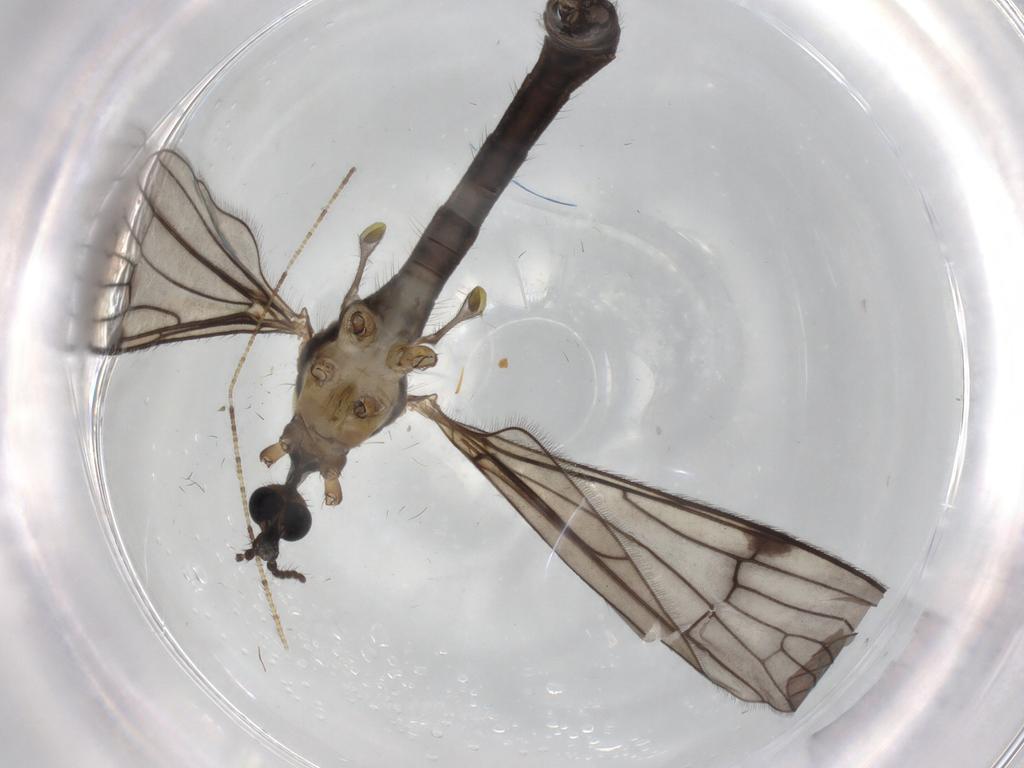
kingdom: Animalia
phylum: Arthropoda
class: Insecta
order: Diptera
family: Limoniidae
